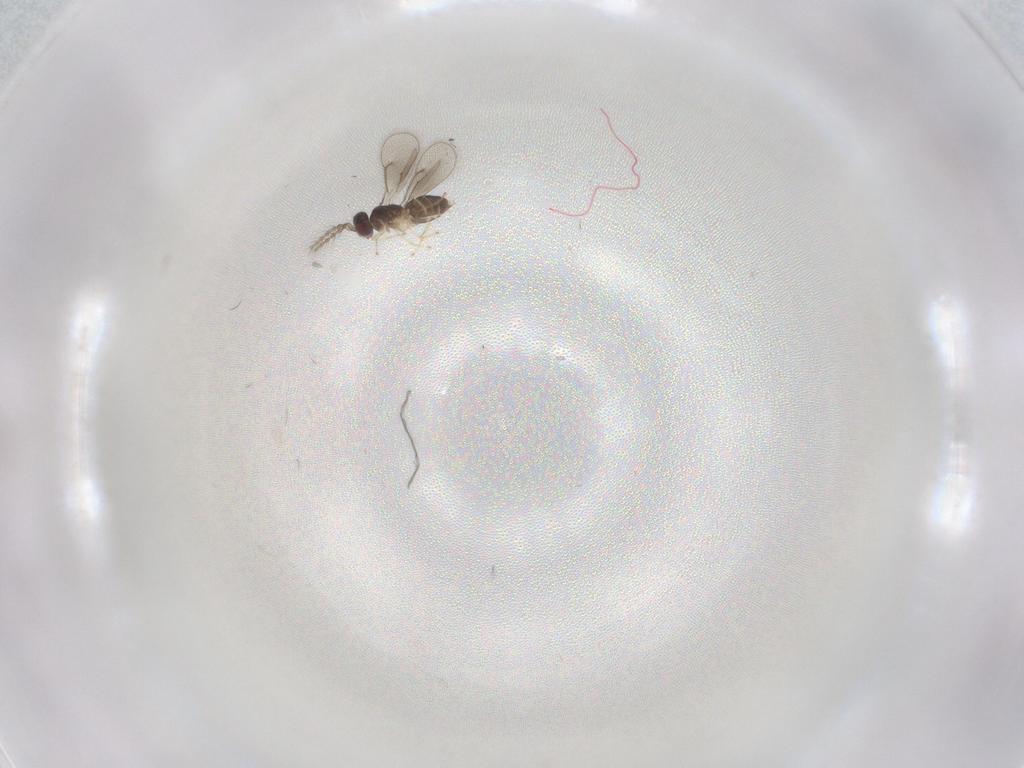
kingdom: Animalia
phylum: Arthropoda
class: Insecta
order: Hymenoptera
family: Eulophidae
